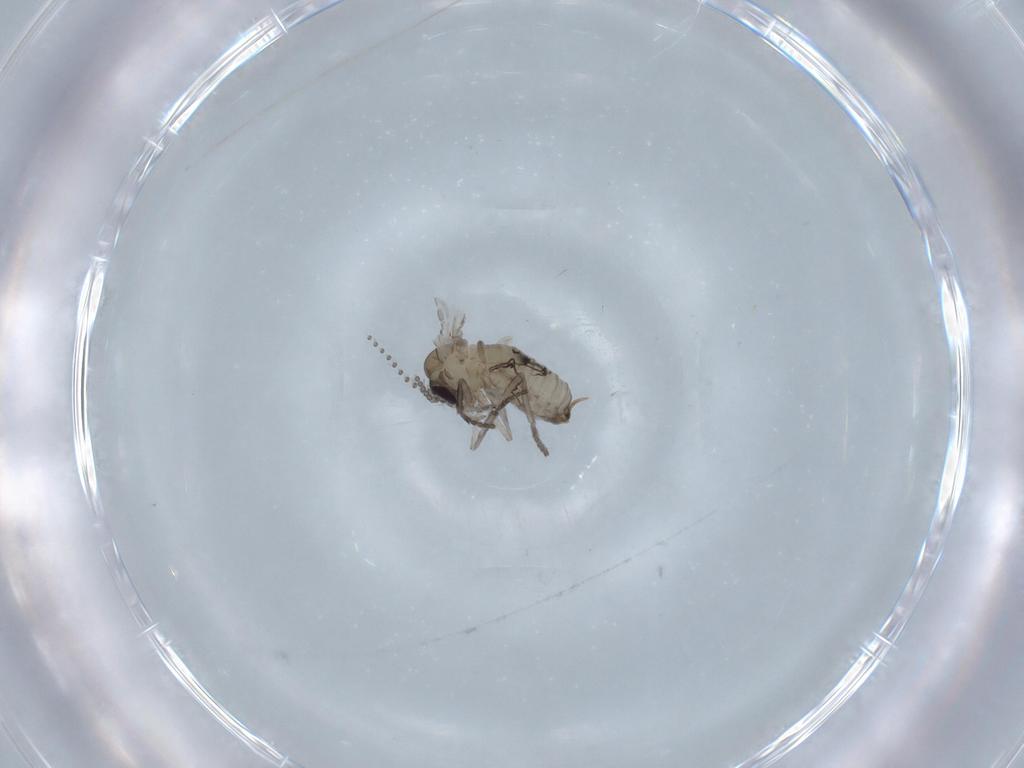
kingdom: Animalia
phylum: Arthropoda
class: Insecta
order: Diptera
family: Psychodidae
